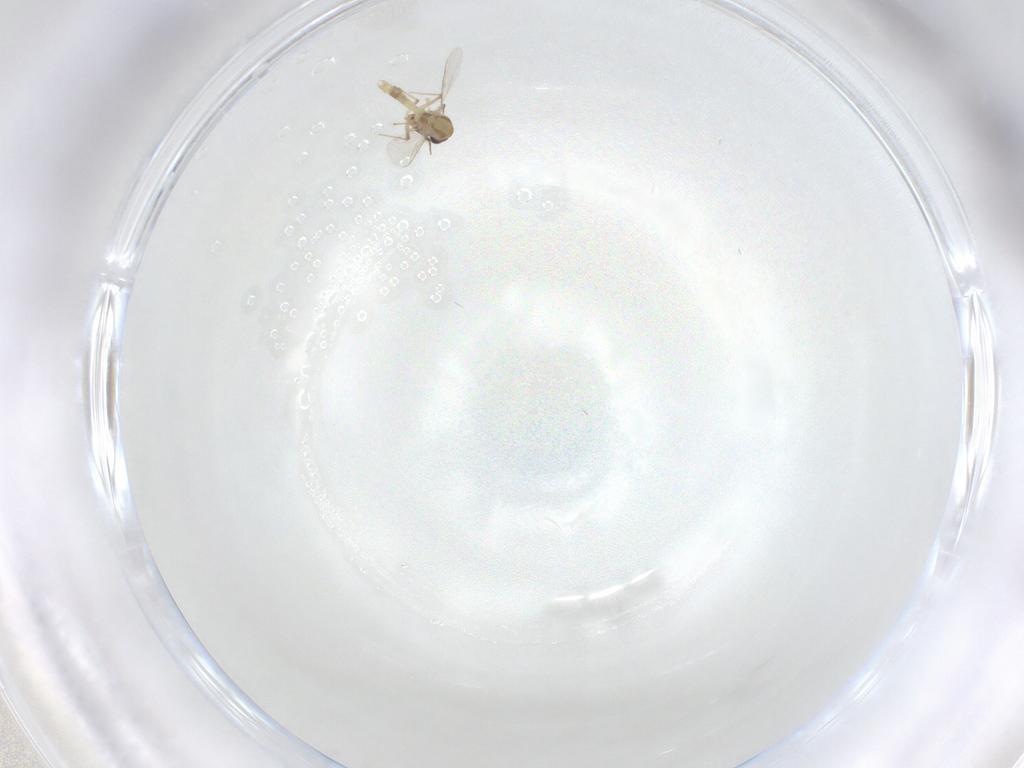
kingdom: Animalia
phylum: Arthropoda
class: Insecta
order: Diptera
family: Chironomidae
